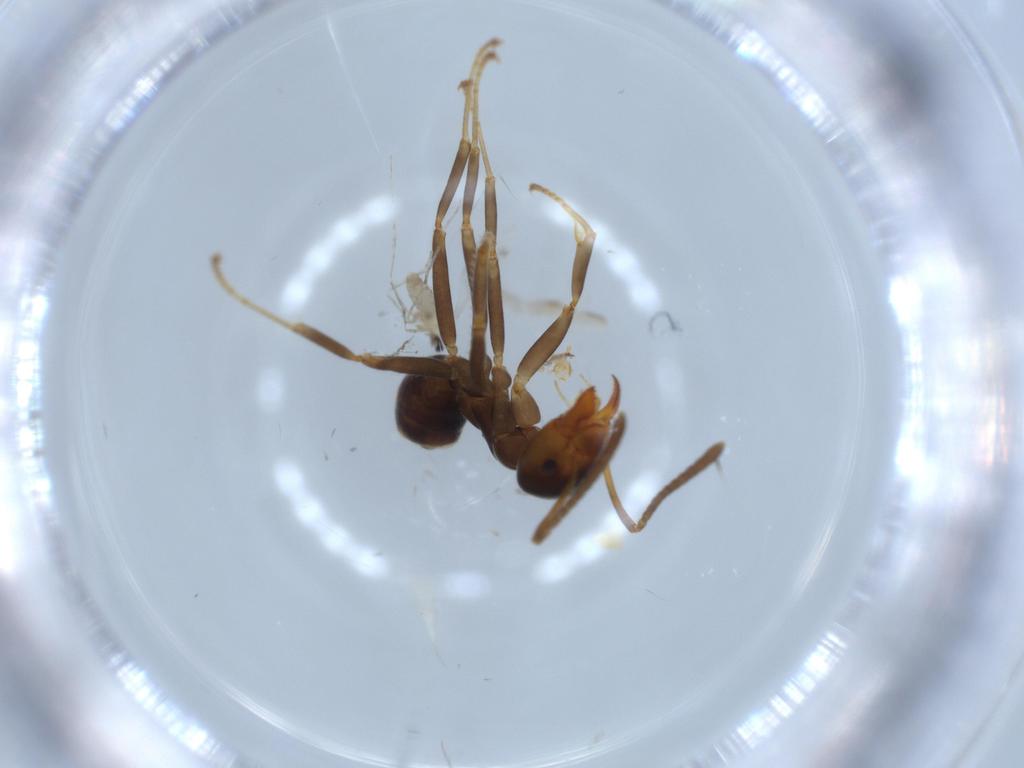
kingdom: Animalia
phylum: Arthropoda
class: Insecta
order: Hymenoptera
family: Formicidae
